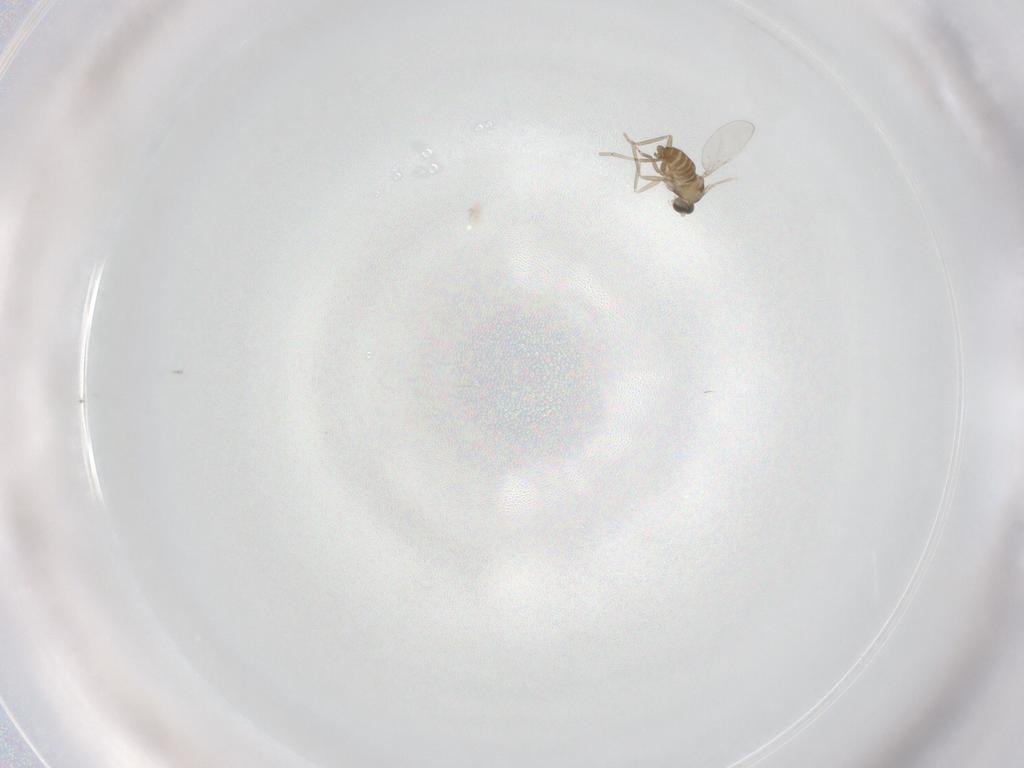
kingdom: Animalia
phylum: Arthropoda
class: Insecta
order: Diptera
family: Cecidomyiidae
